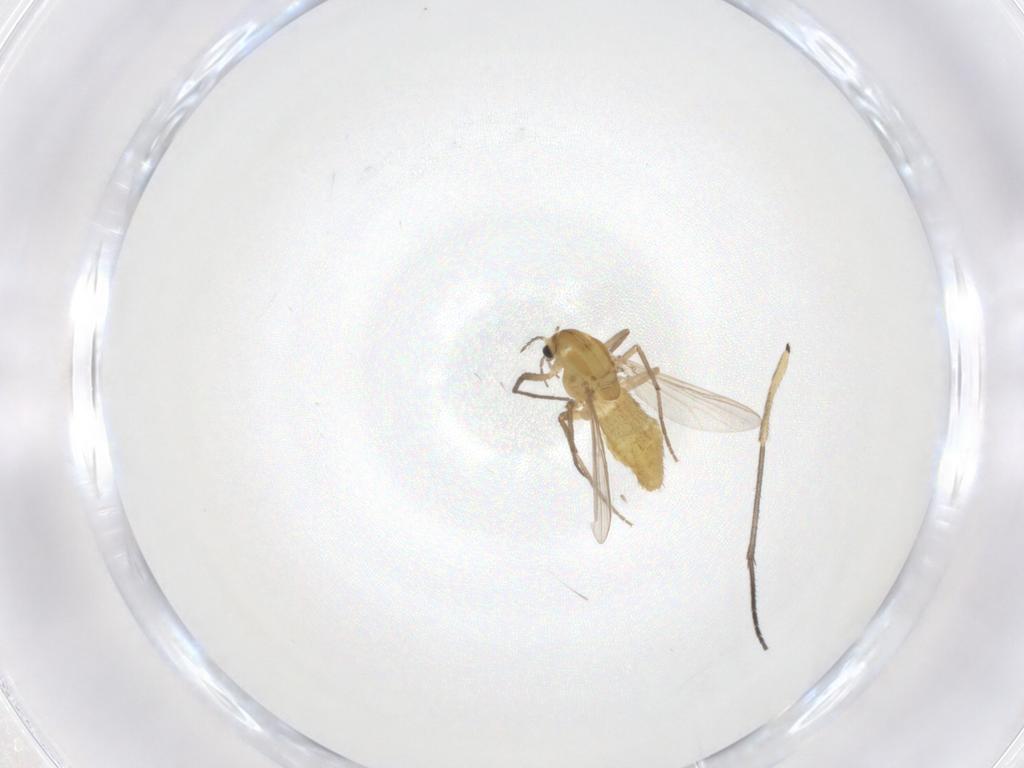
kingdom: Animalia
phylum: Arthropoda
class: Insecta
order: Diptera
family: Chironomidae
